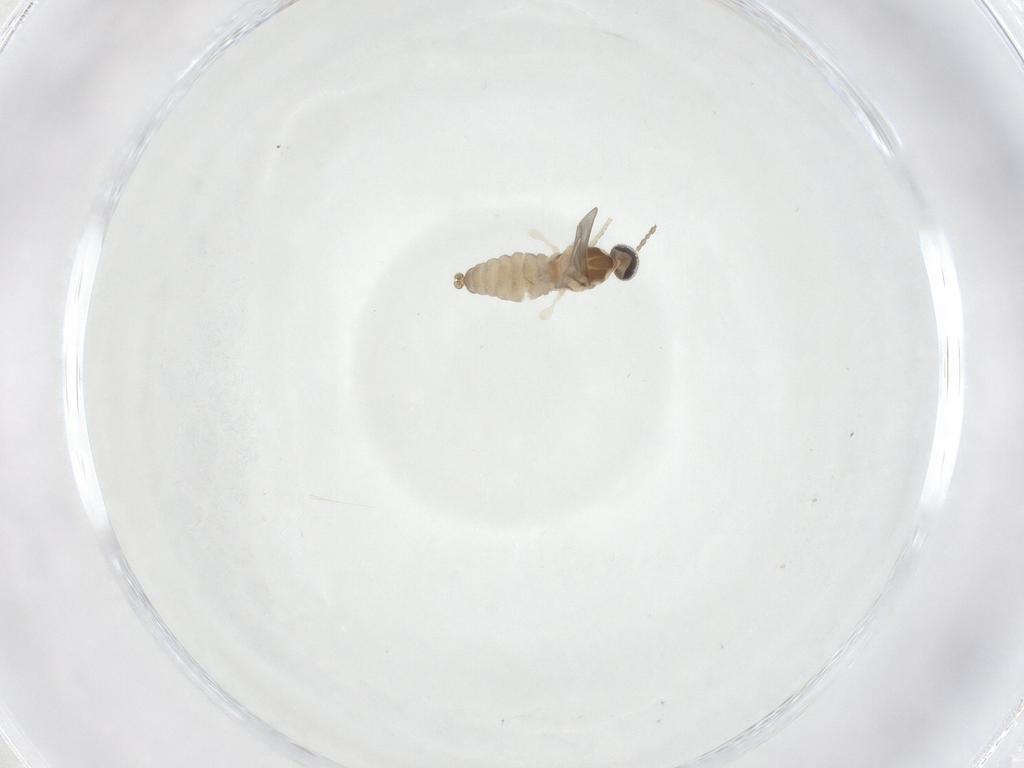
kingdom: Animalia
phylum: Arthropoda
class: Insecta
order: Diptera
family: Cecidomyiidae
